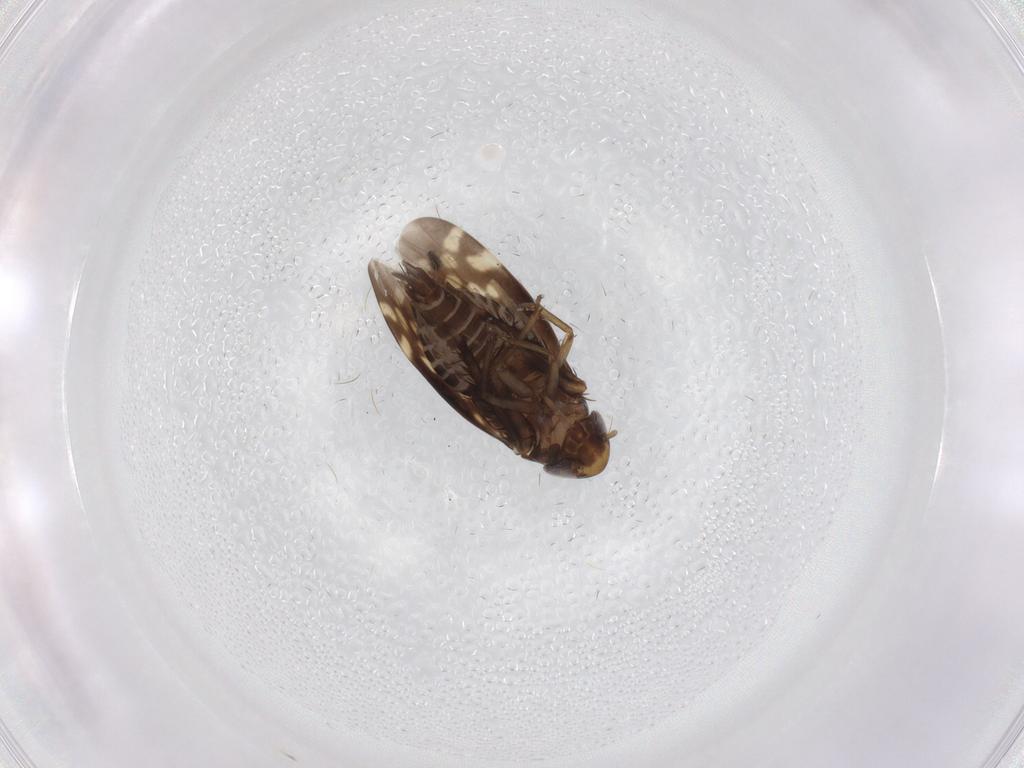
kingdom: Animalia
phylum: Arthropoda
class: Insecta
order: Hemiptera
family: Cicadellidae
